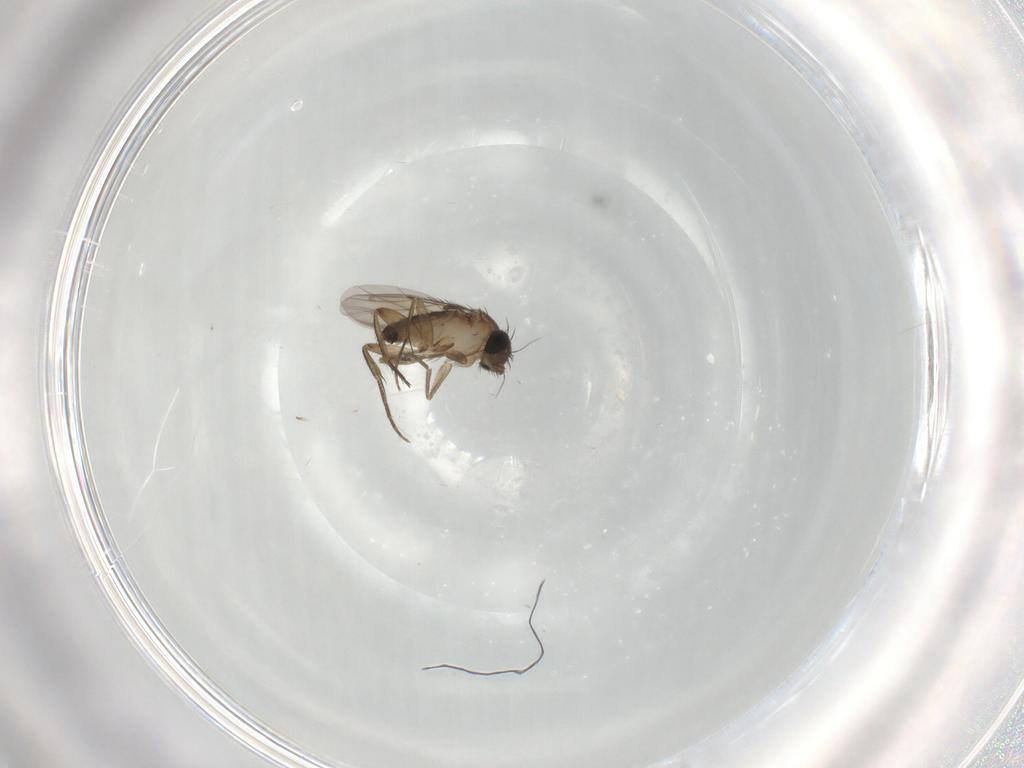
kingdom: Animalia
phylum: Arthropoda
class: Insecta
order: Diptera
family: Phoridae
